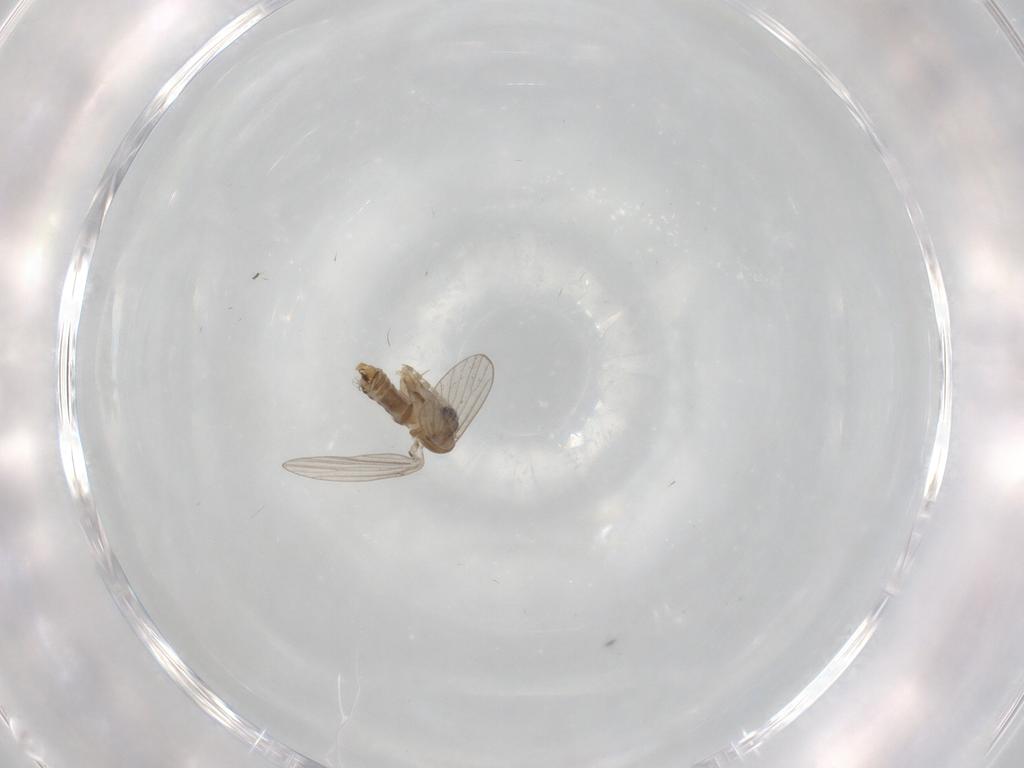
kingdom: Animalia
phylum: Arthropoda
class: Insecta
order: Diptera
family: Psychodidae
